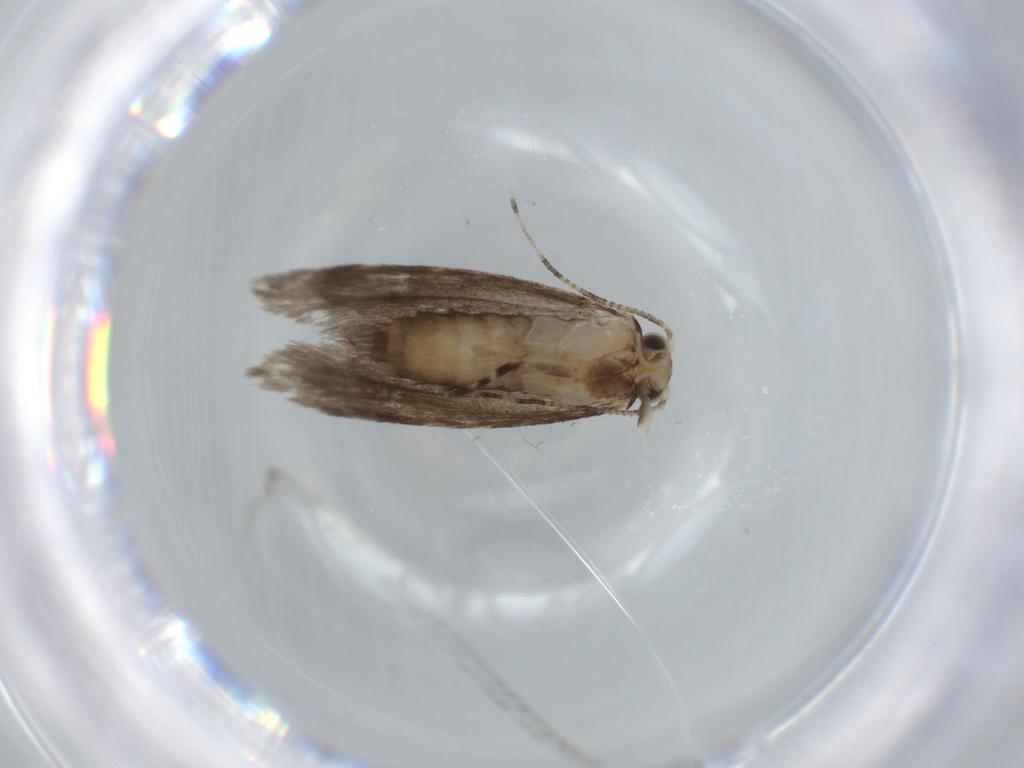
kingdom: Animalia
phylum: Arthropoda
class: Insecta
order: Lepidoptera
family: Tineidae
